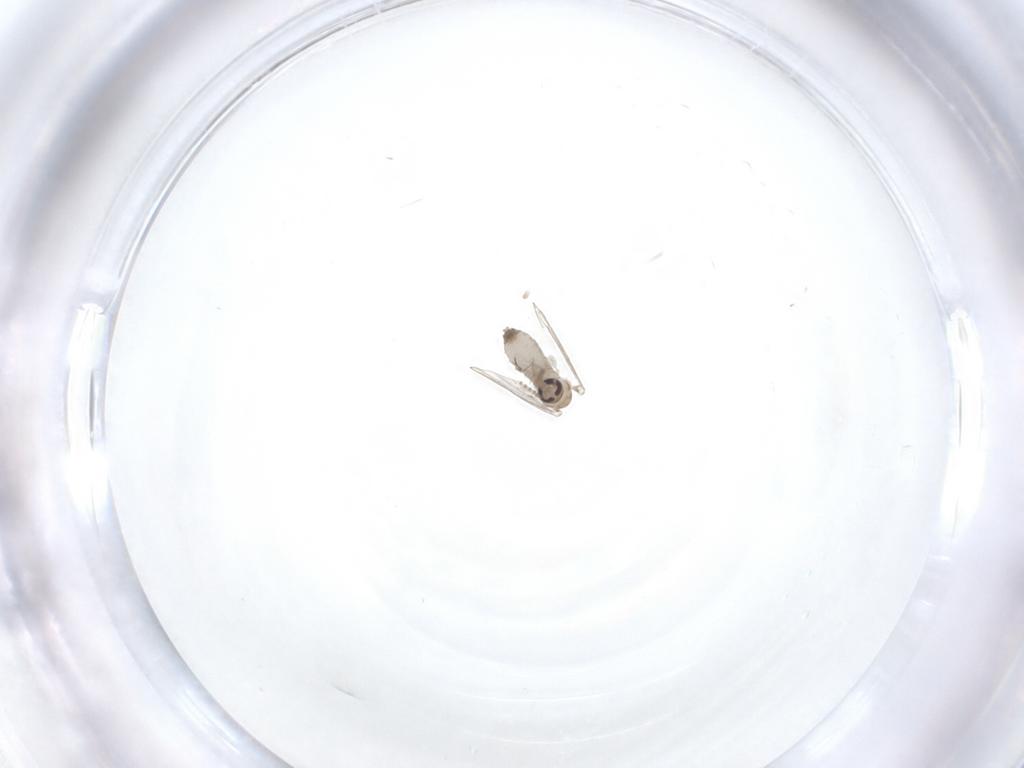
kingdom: Animalia
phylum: Arthropoda
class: Insecta
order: Diptera
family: Psychodidae
